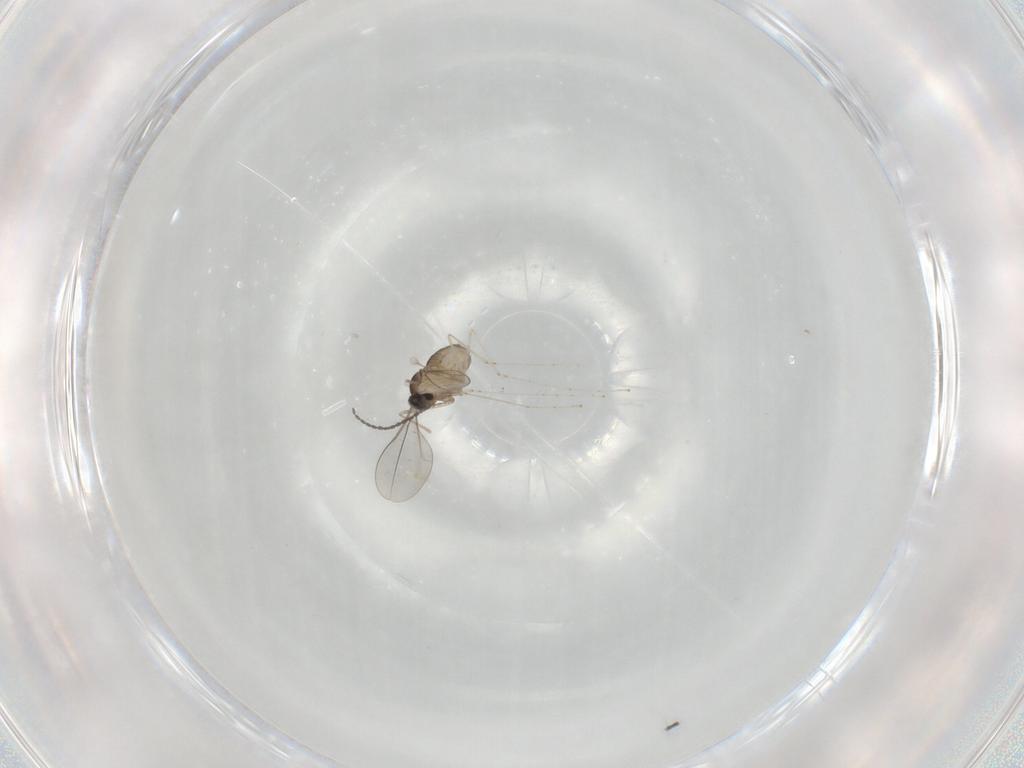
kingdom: Animalia
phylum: Arthropoda
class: Insecta
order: Diptera
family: Cecidomyiidae
